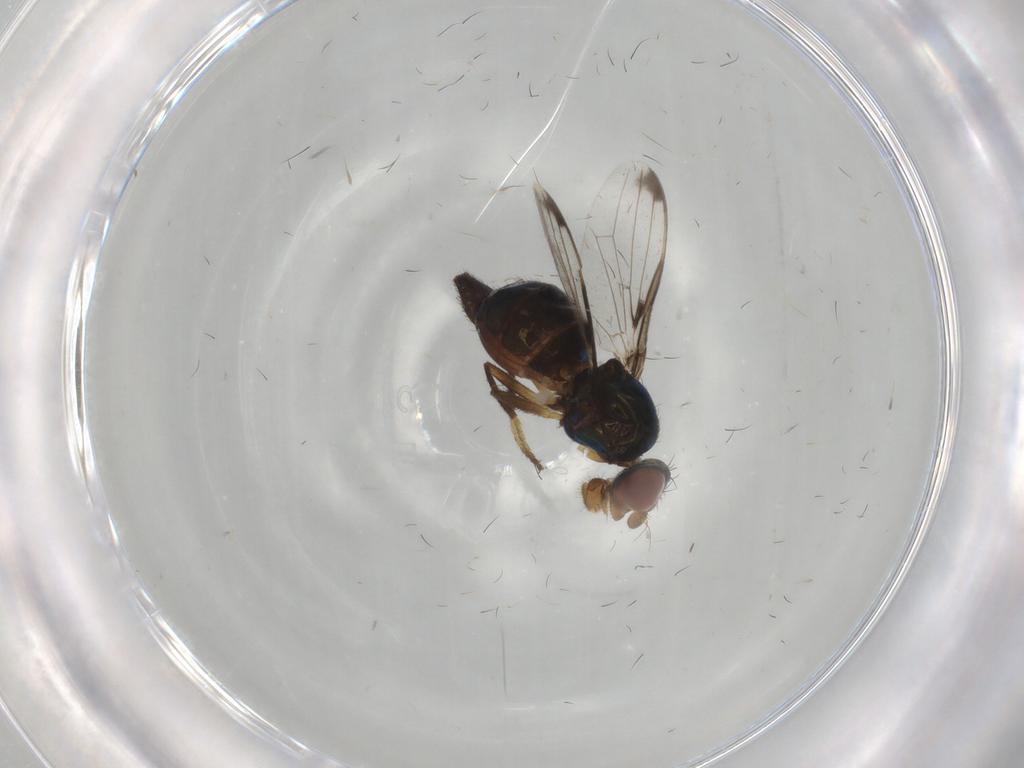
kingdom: Animalia
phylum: Arthropoda
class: Insecta
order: Diptera
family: Ulidiidae
